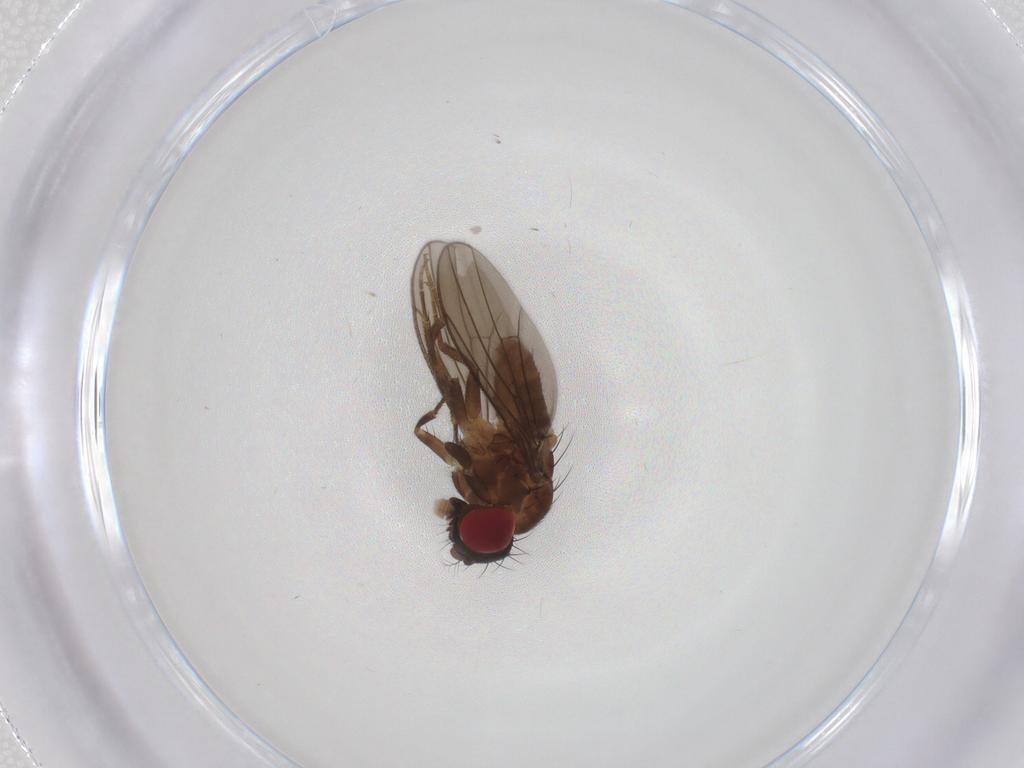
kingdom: Animalia
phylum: Arthropoda
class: Insecta
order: Diptera
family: Drosophilidae
